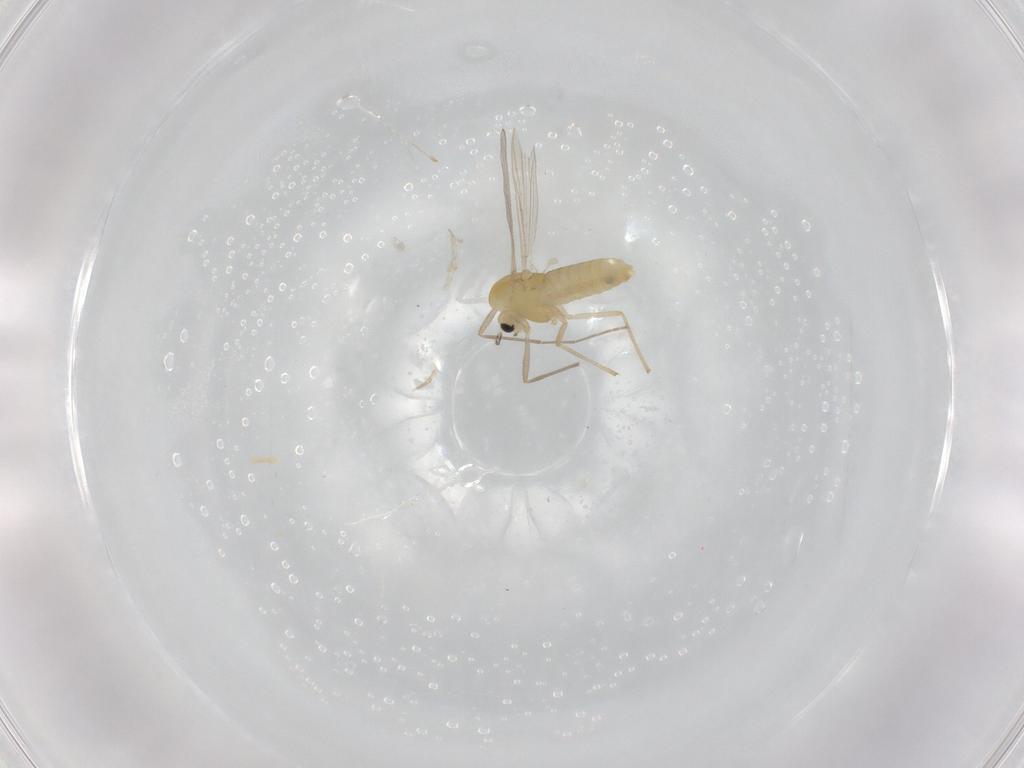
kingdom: Animalia
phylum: Arthropoda
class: Insecta
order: Diptera
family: Chironomidae
